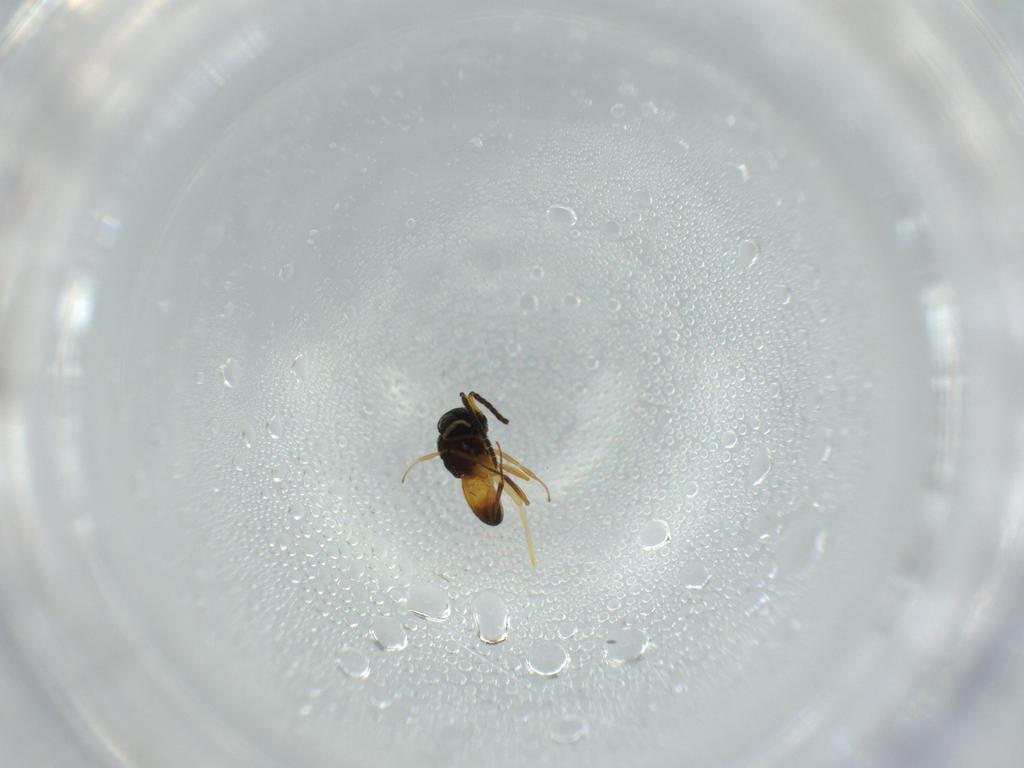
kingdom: Animalia
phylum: Arthropoda
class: Insecta
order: Hymenoptera
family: Scelionidae
